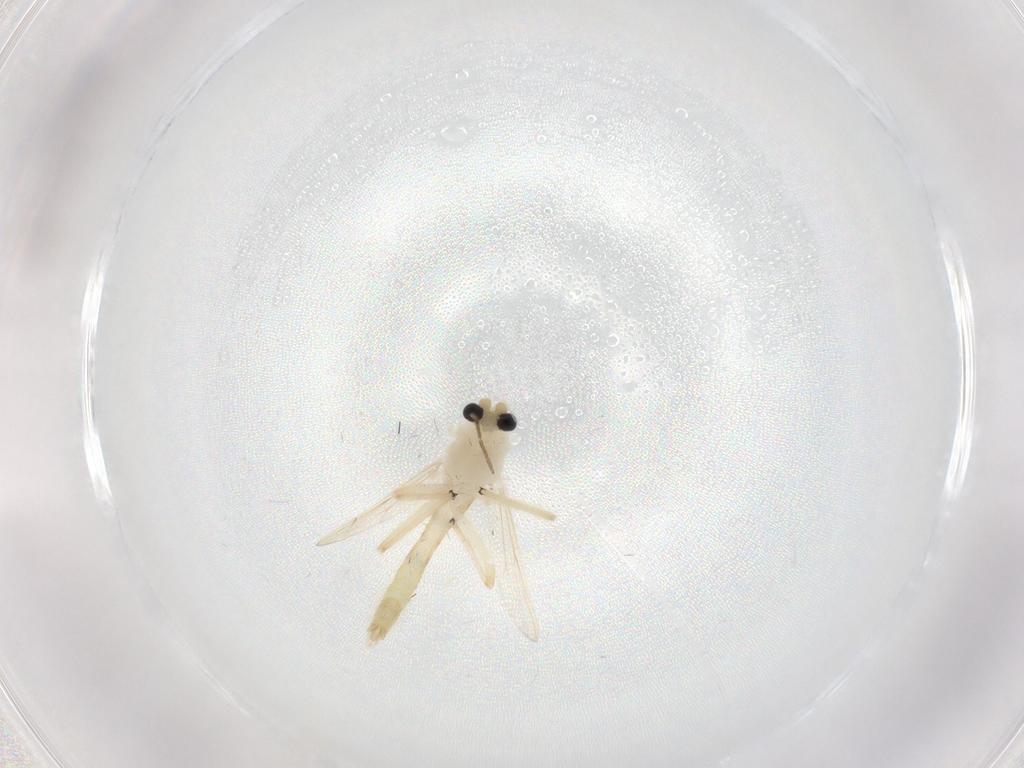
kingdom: Animalia
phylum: Arthropoda
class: Insecta
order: Diptera
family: Chironomidae
